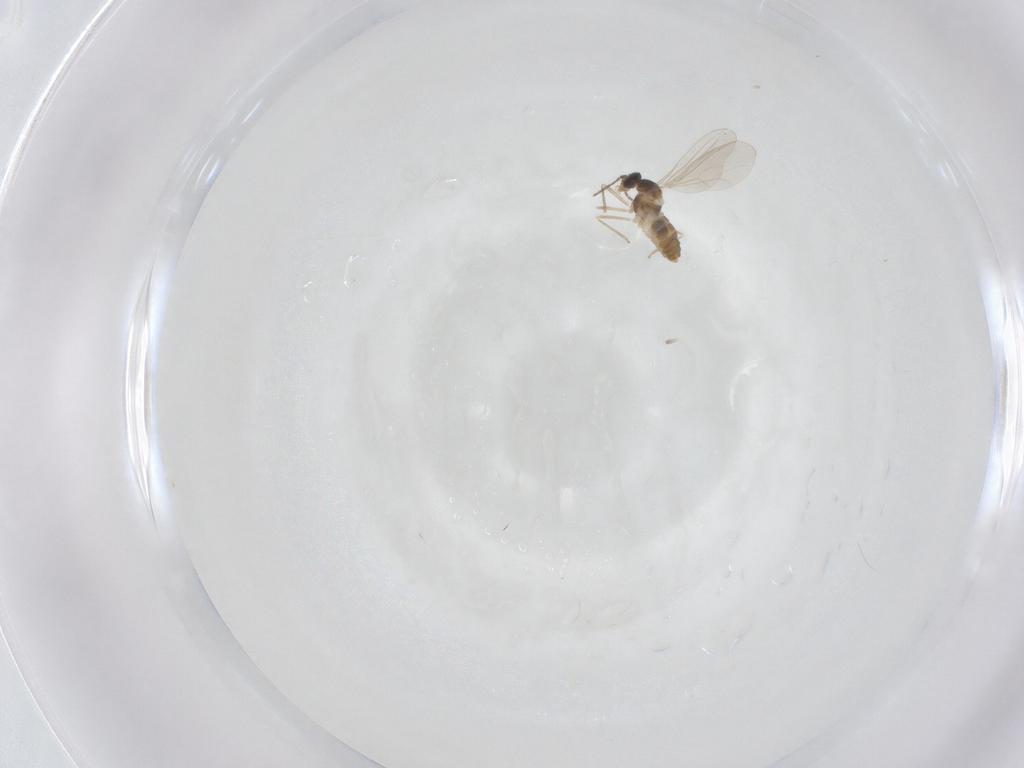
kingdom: Animalia
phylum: Arthropoda
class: Insecta
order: Diptera
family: Cecidomyiidae
